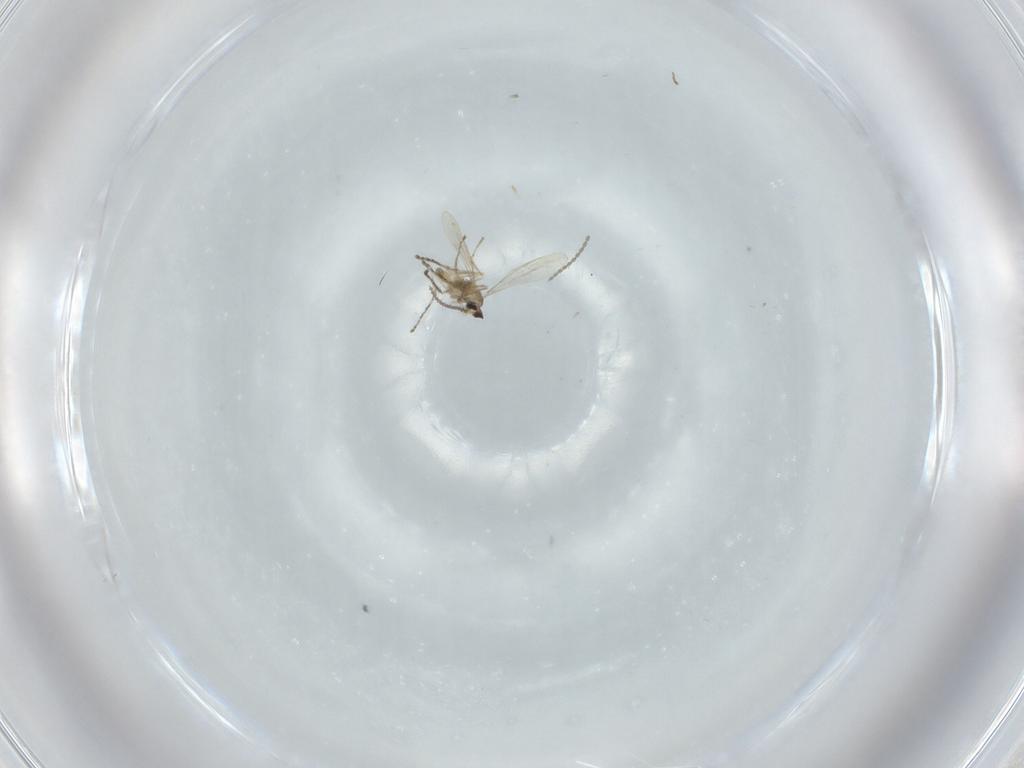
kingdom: Animalia
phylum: Arthropoda
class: Insecta
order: Diptera
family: Cecidomyiidae
